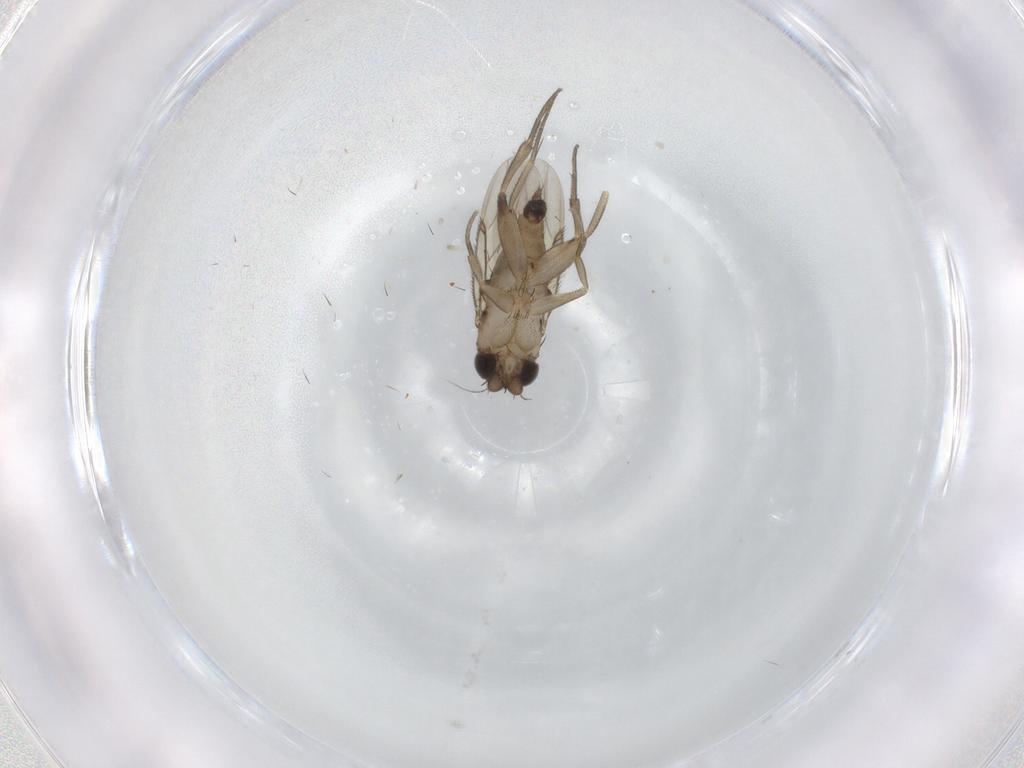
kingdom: Animalia
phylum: Arthropoda
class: Insecta
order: Diptera
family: Phoridae
